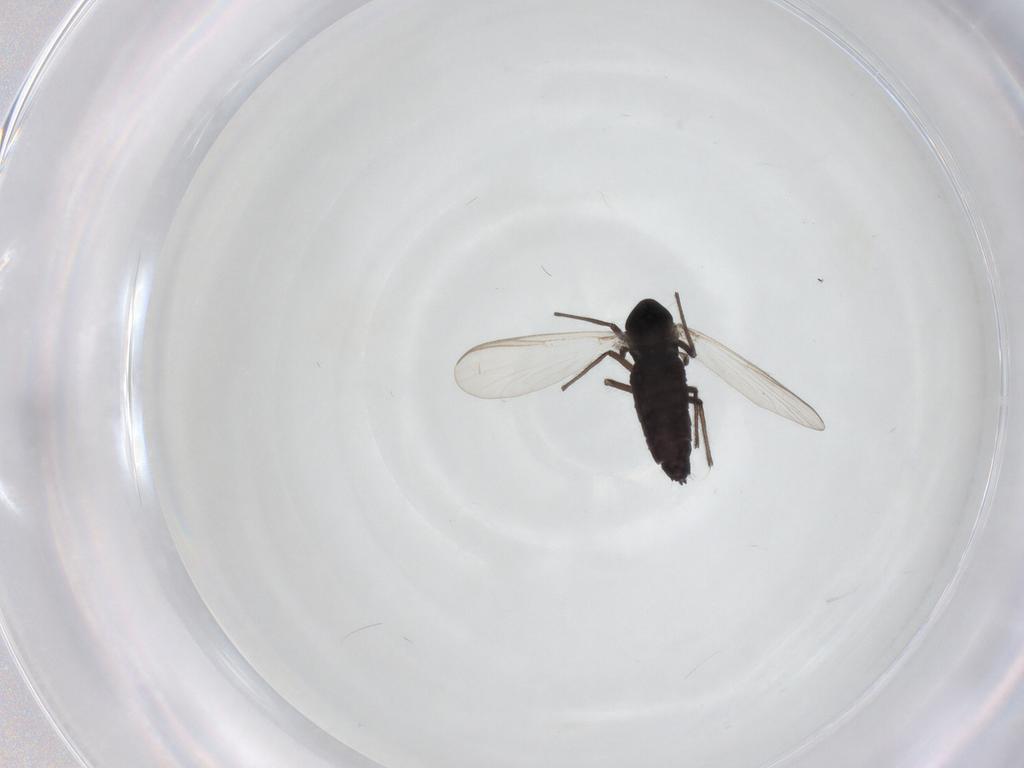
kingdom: Animalia
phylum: Arthropoda
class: Insecta
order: Diptera
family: Chironomidae
